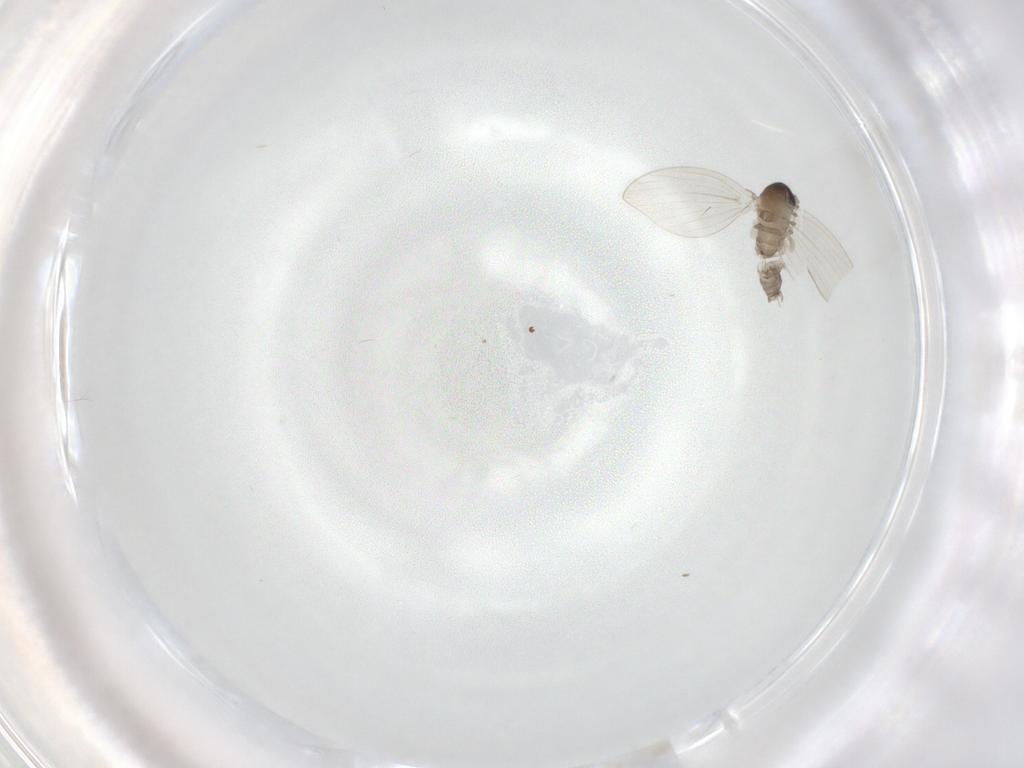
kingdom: Animalia
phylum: Arthropoda
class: Insecta
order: Diptera
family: Psychodidae
